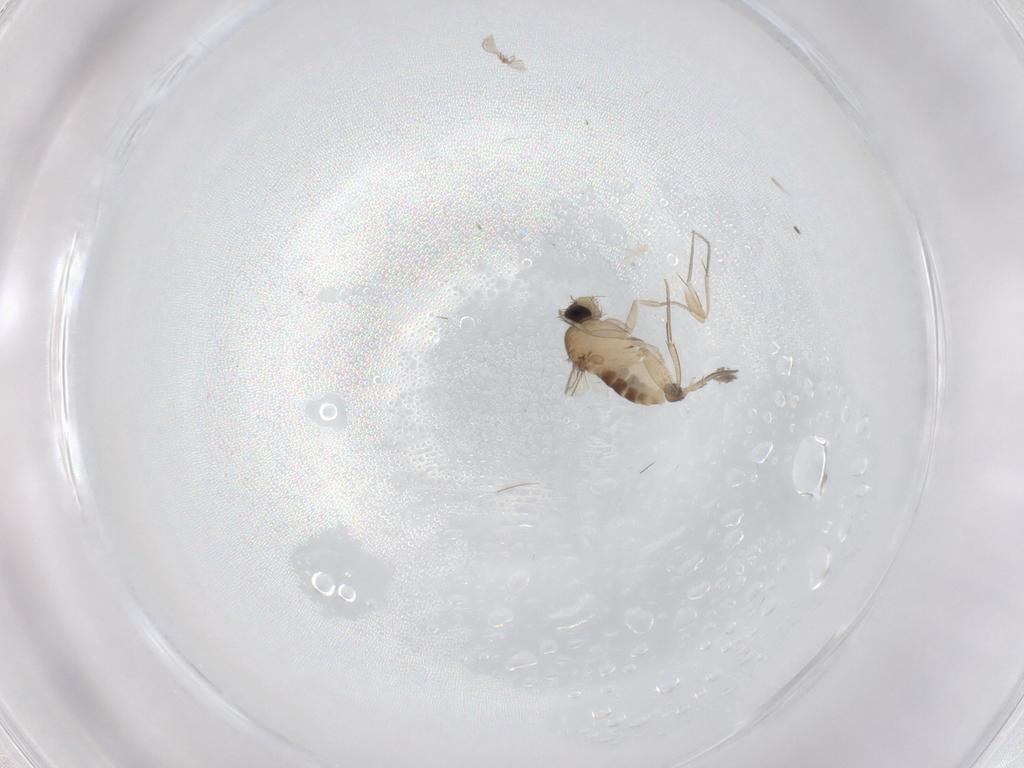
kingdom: Animalia
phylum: Arthropoda
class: Insecta
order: Diptera
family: Phoridae
